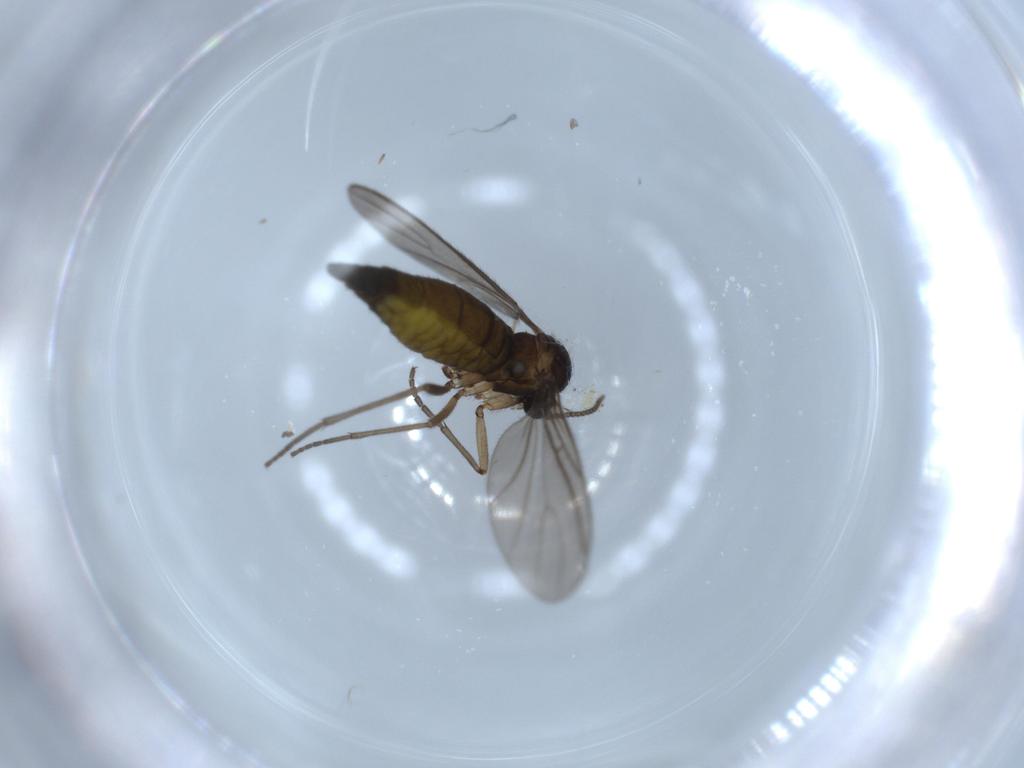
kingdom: Animalia
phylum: Arthropoda
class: Insecta
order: Diptera
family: Sciaridae
